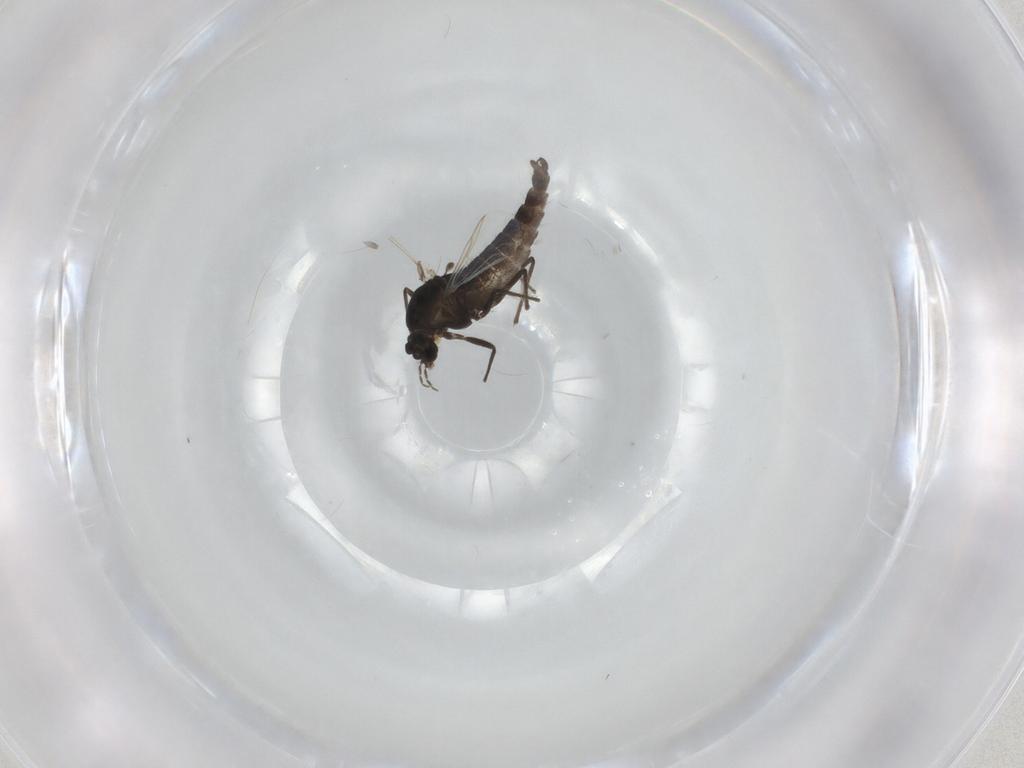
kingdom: Animalia
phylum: Arthropoda
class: Insecta
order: Diptera
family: Chironomidae
